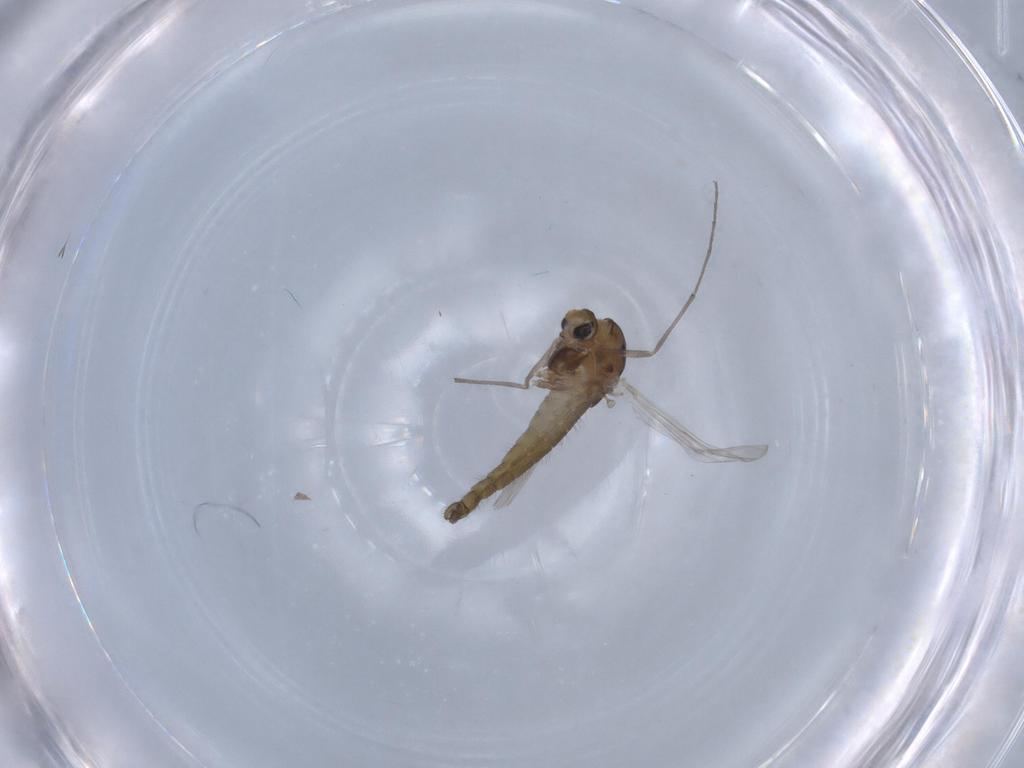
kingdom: Animalia
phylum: Arthropoda
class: Insecta
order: Diptera
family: Chironomidae
